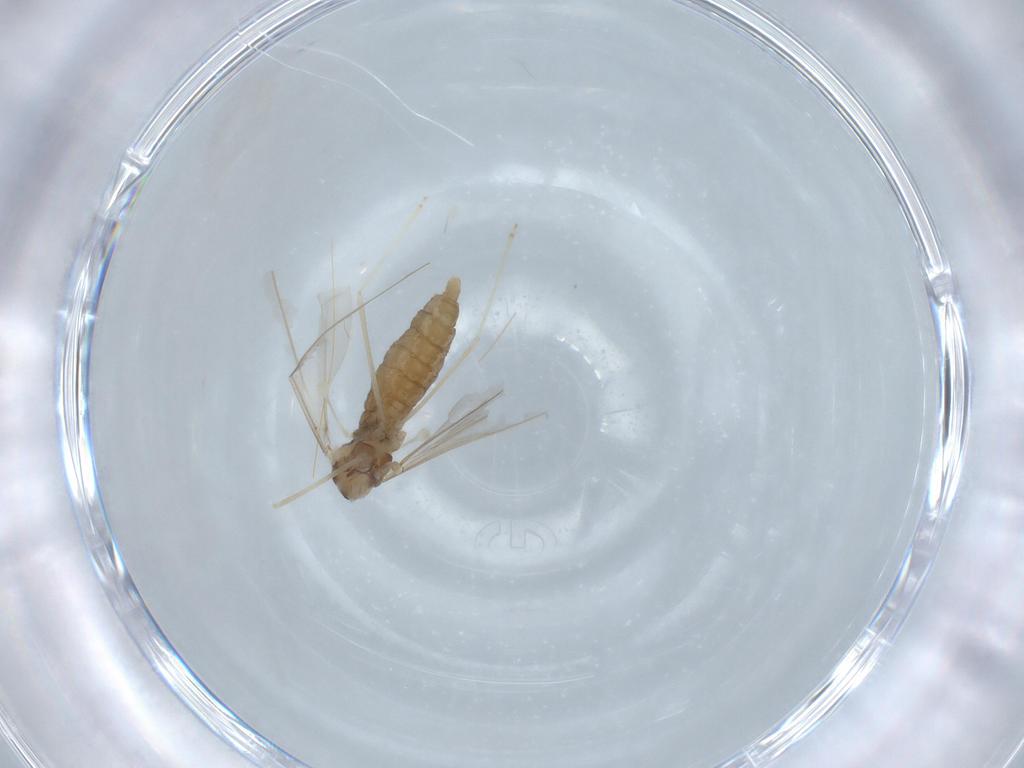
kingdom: Animalia
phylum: Arthropoda
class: Insecta
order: Diptera
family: Cecidomyiidae
